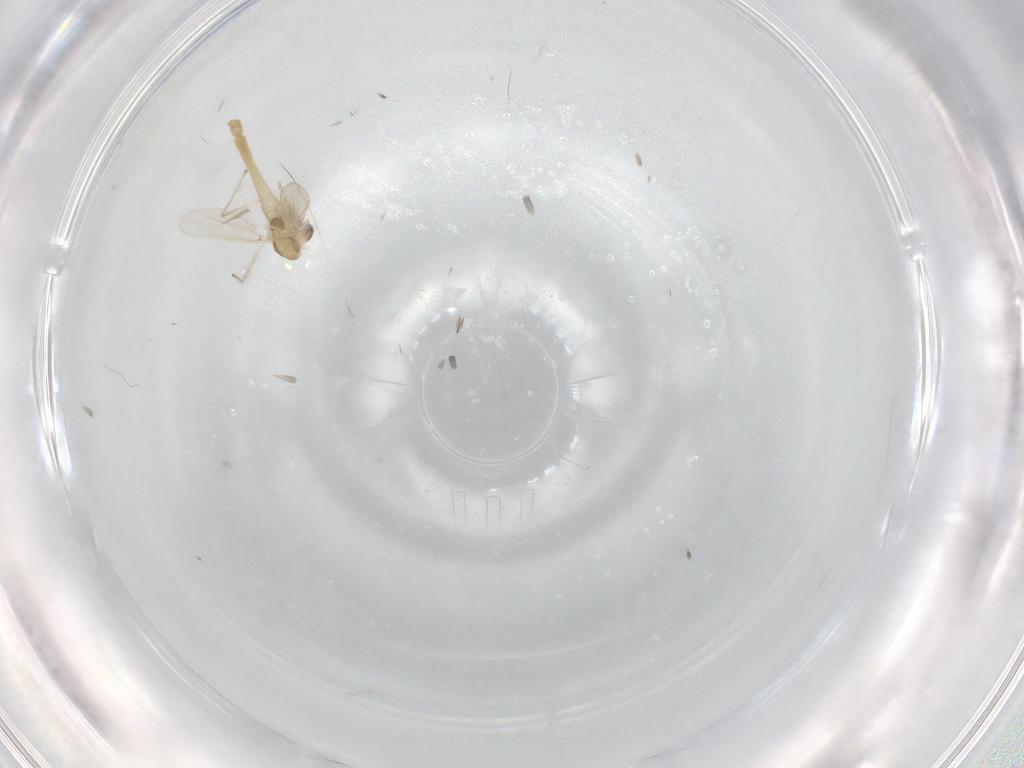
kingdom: Animalia
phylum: Arthropoda
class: Insecta
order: Diptera
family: Chironomidae
